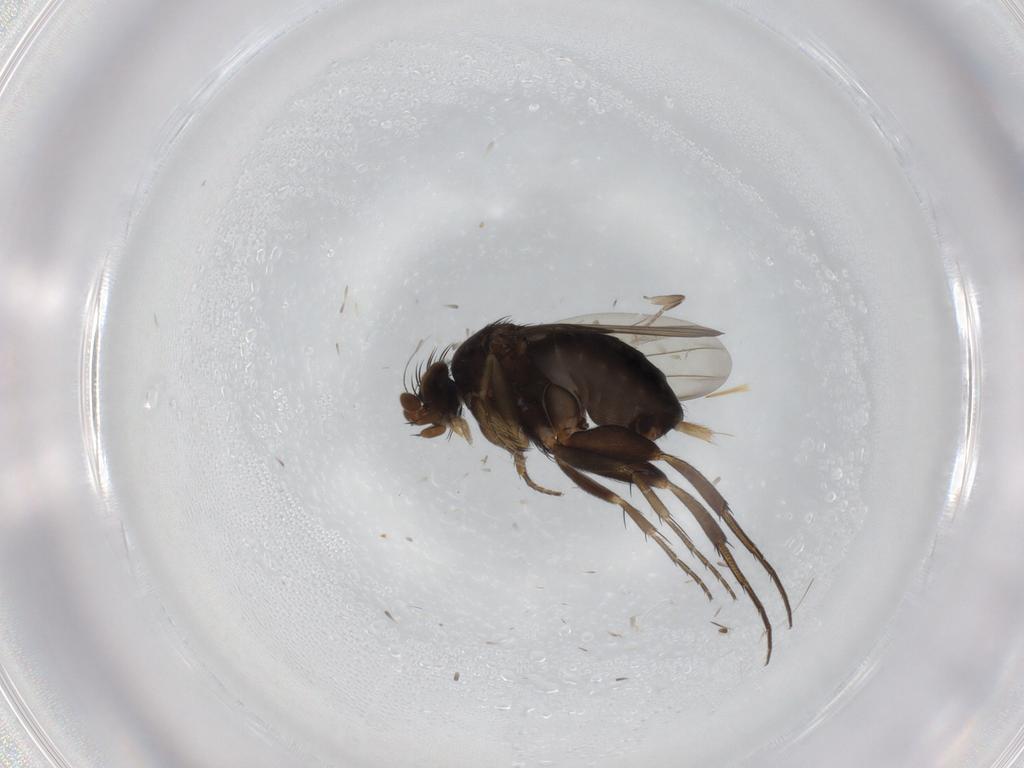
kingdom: Animalia
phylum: Arthropoda
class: Insecta
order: Diptera
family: Phoridae
